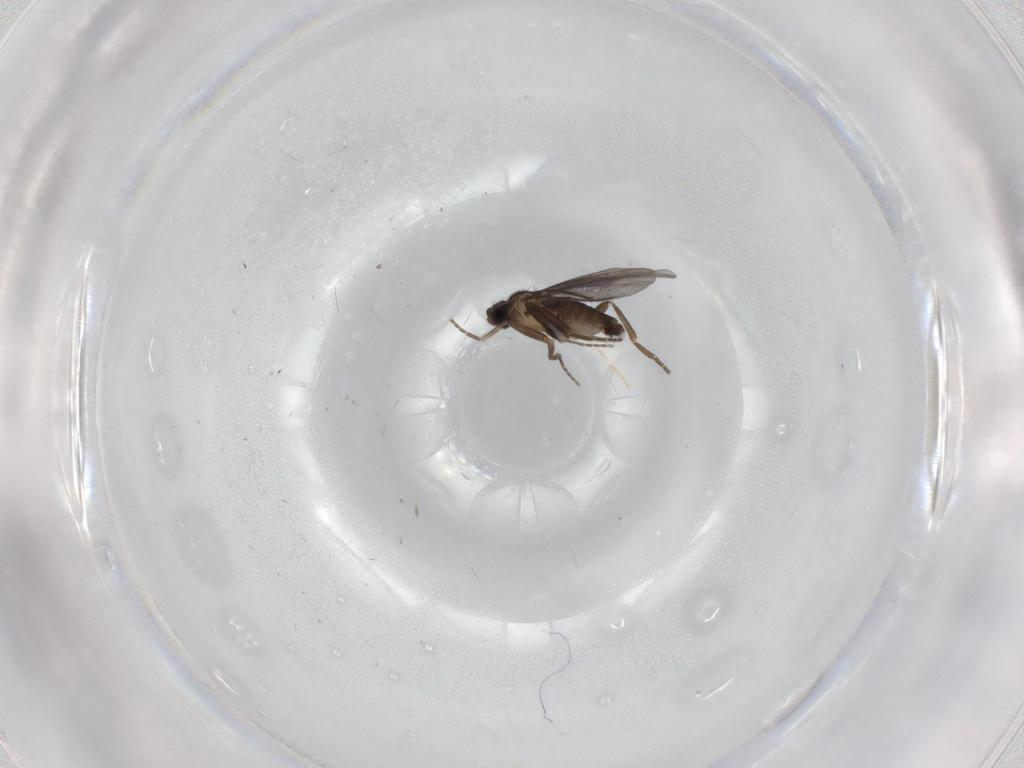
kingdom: Animalia
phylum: Arthropoda
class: Insecta
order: Diptera
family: Phoridae
